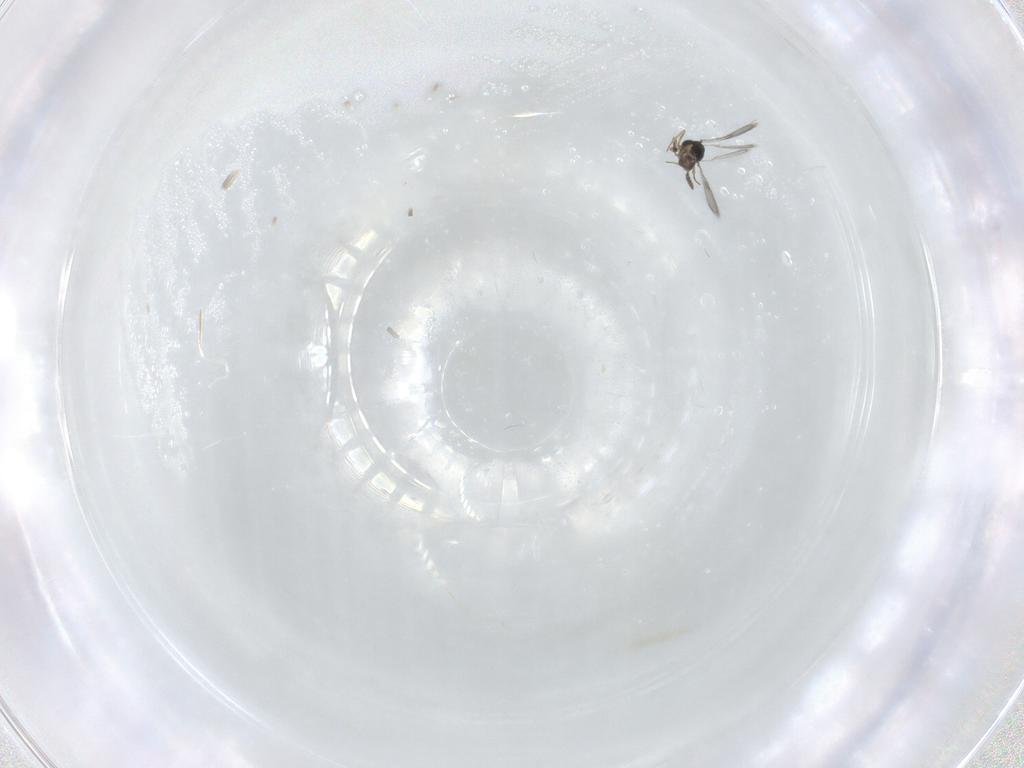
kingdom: Animalia
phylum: Arthropoda
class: Insecta
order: Hymenoptera
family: Scelionidae
